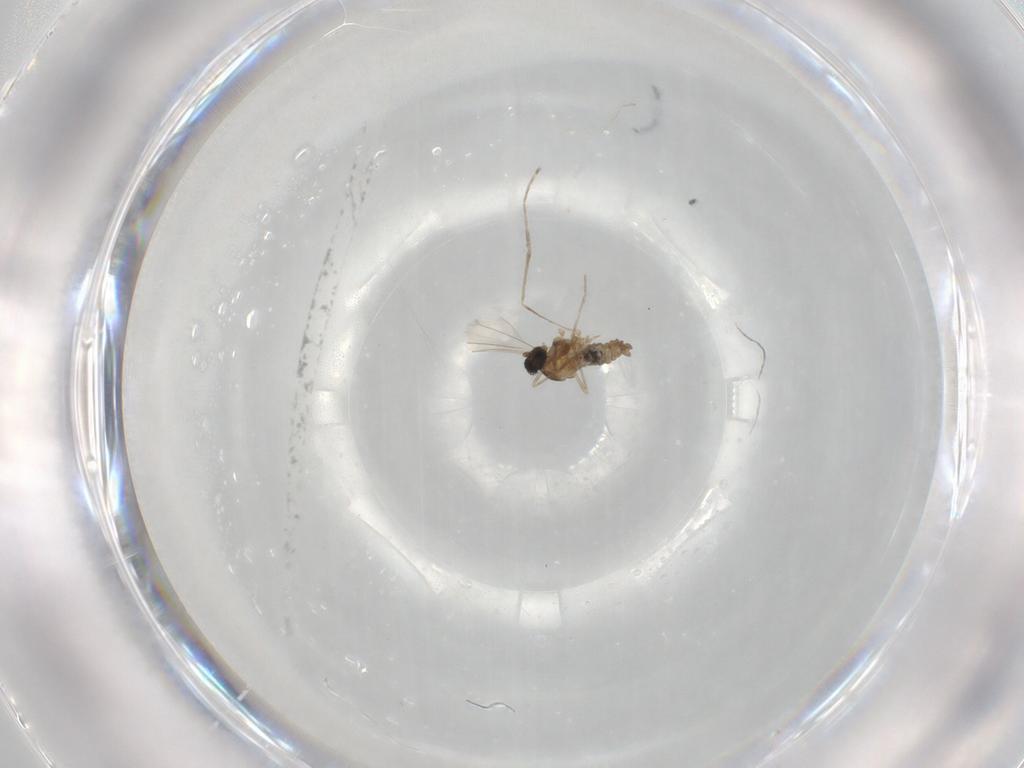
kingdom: Animalia
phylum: Arthropoda
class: Insecta
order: Diptera
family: Cecidomyiidae
